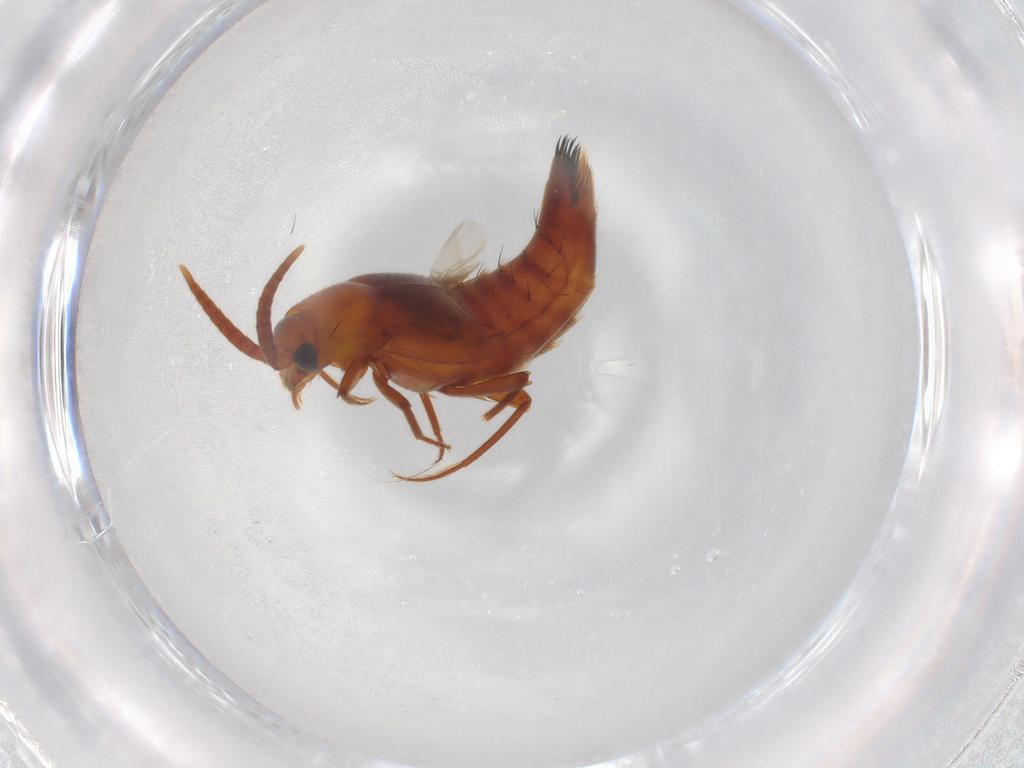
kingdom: Animalia
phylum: Arthropoda
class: Insecta
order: Coleoptera
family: Staphylinidae
